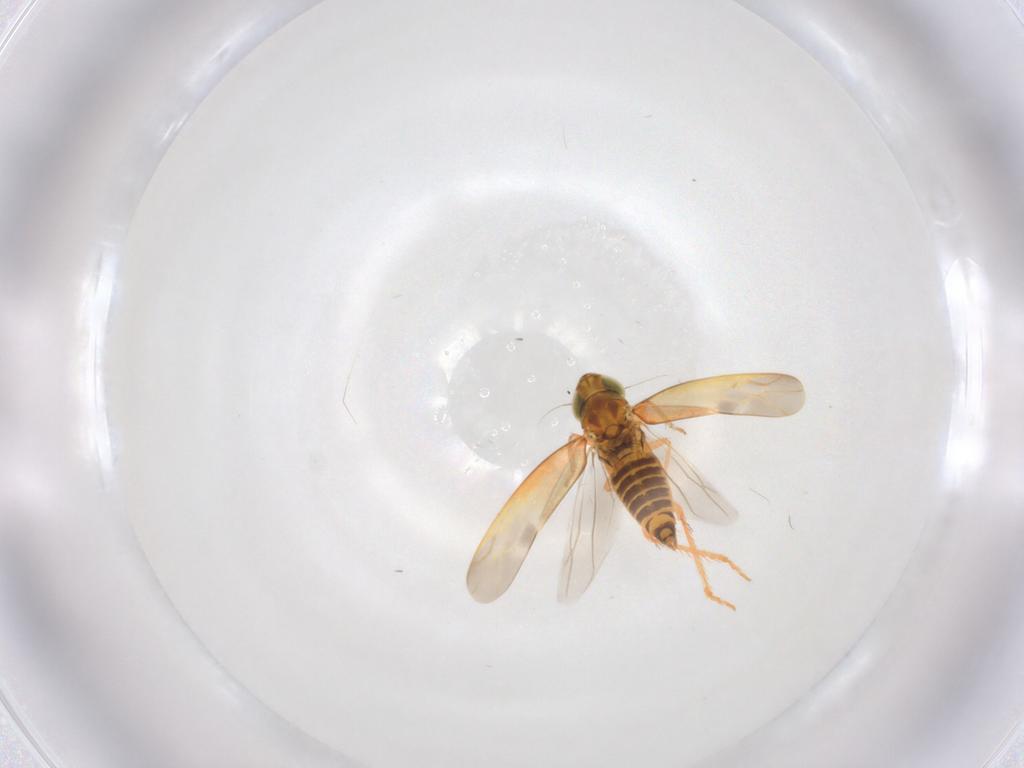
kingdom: Animalia
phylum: Arthropoda
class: Insecta
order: Hemiptera
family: Cicadellidae
